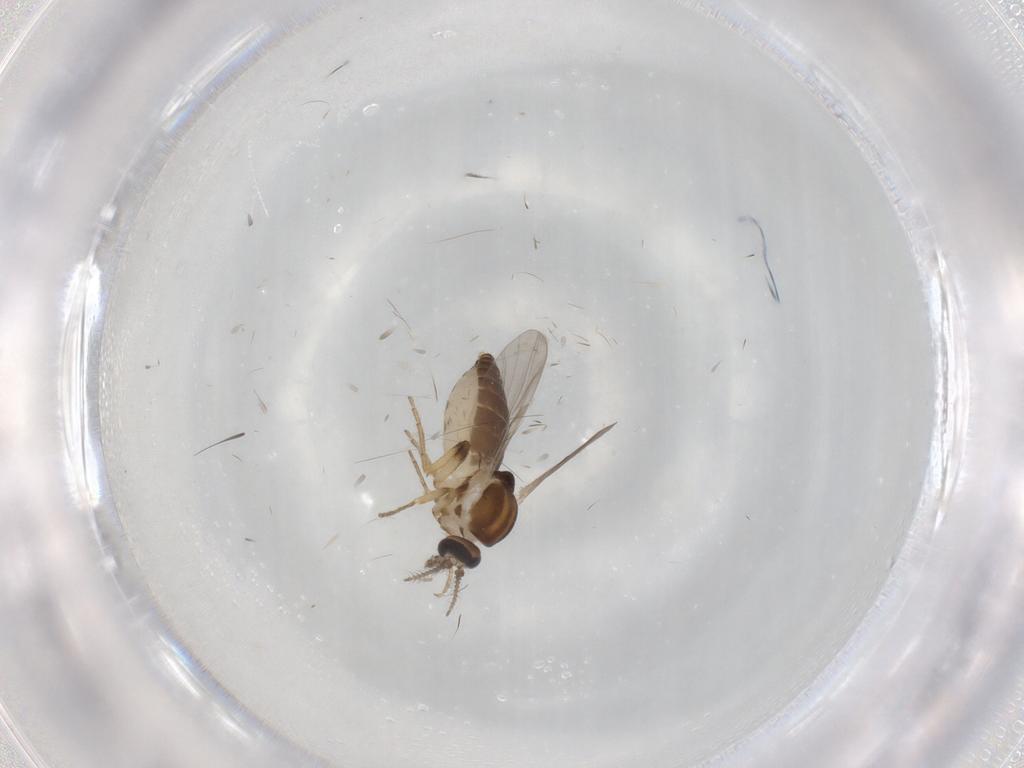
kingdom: Animalia
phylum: Arthropoda
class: Insecta
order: Diptera
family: Ceratopogonidae
